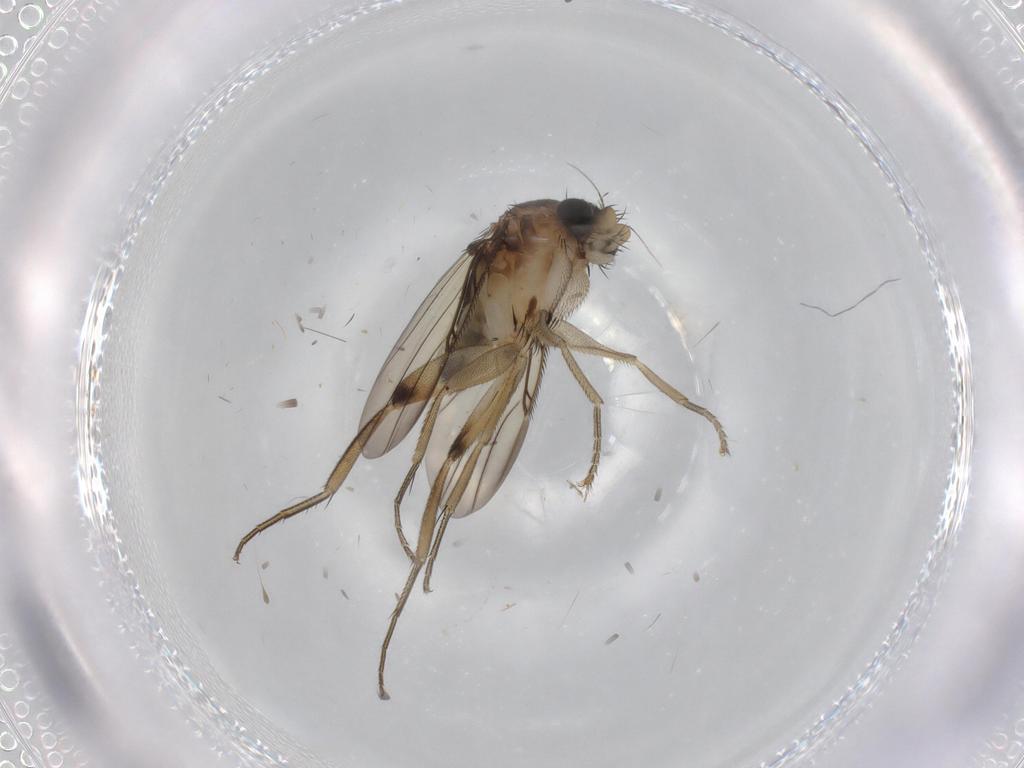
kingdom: Animalia
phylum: Arthropoda
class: Insecta
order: Diptera
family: Phoridae
